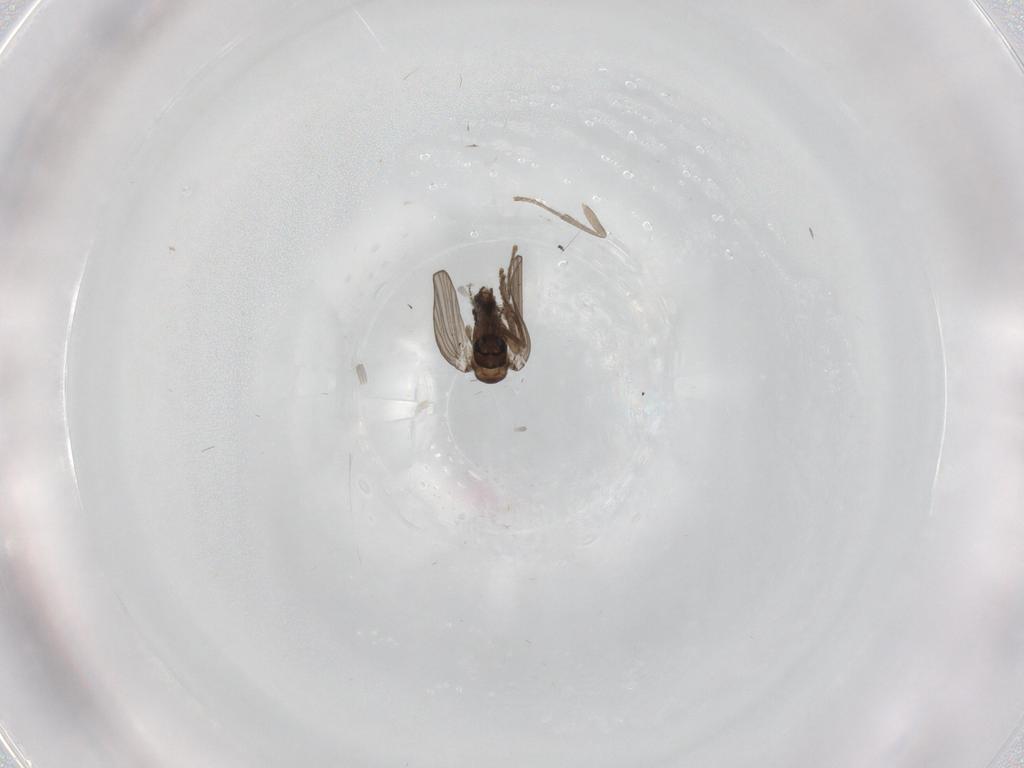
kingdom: Animalia
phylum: Arthropoda
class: Insecta
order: Diptera
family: Psychodidae
